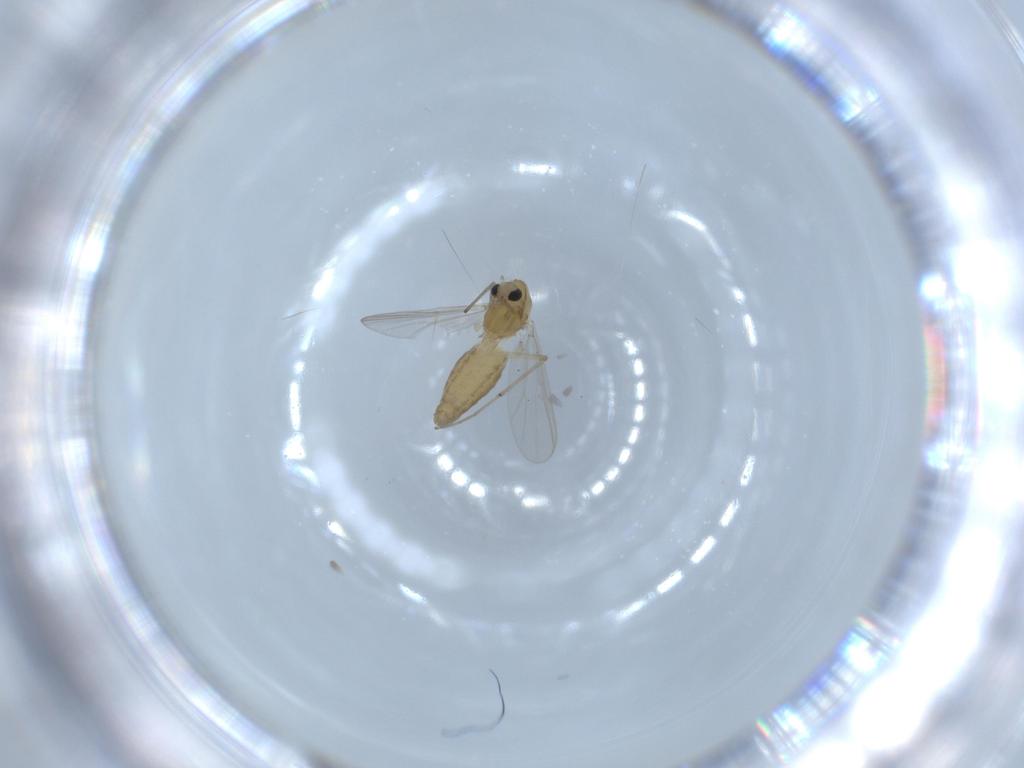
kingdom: Animalia
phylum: Arthropoda
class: Insecta
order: Diptera
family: Chironomidae
